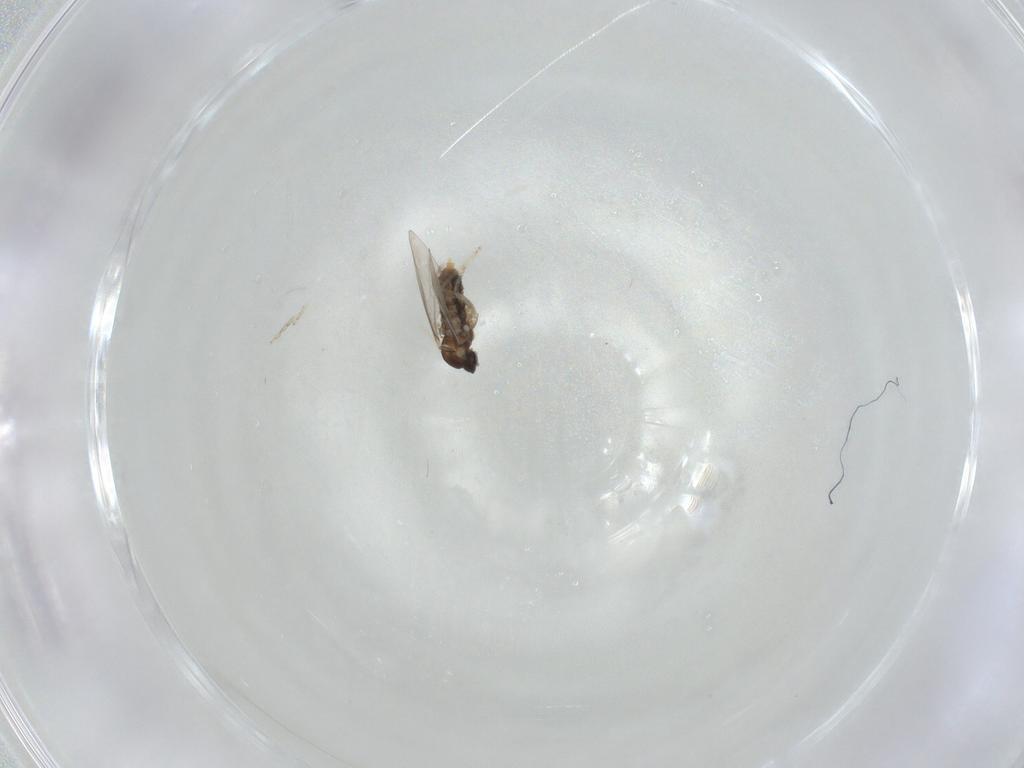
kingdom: Animalia
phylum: Arthropoda
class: Insecta
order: Diptera
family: Cecidomyiidae
